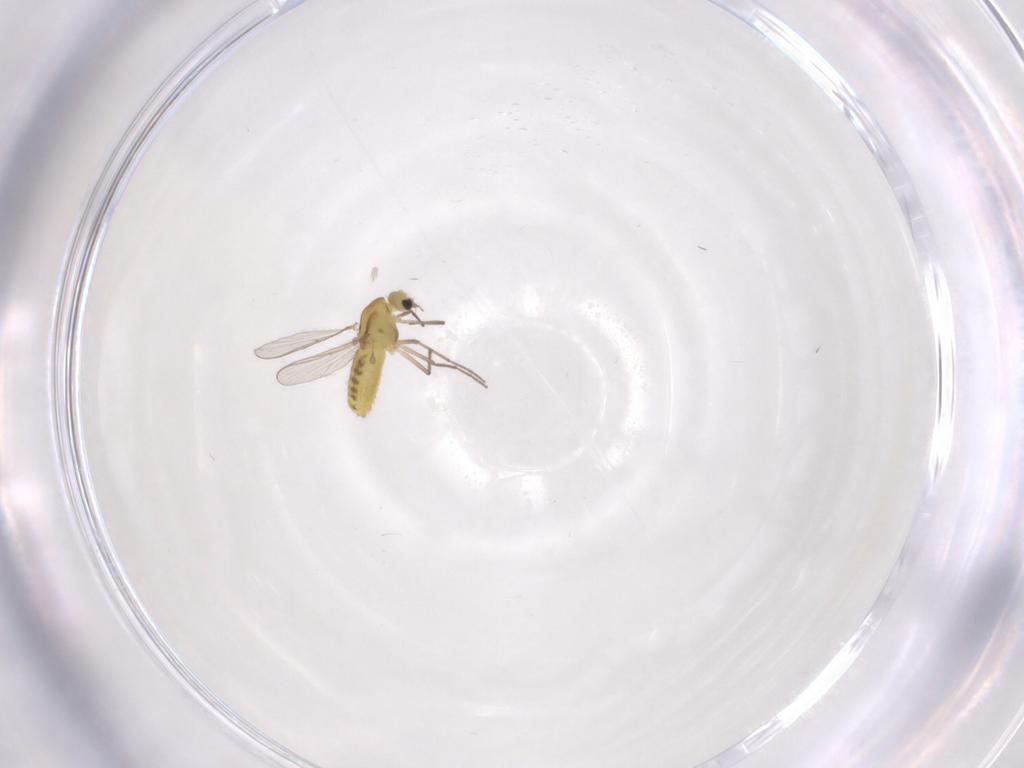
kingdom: Animalia
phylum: Arthropoda
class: Insecta
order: Diptera
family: Chironomidae
